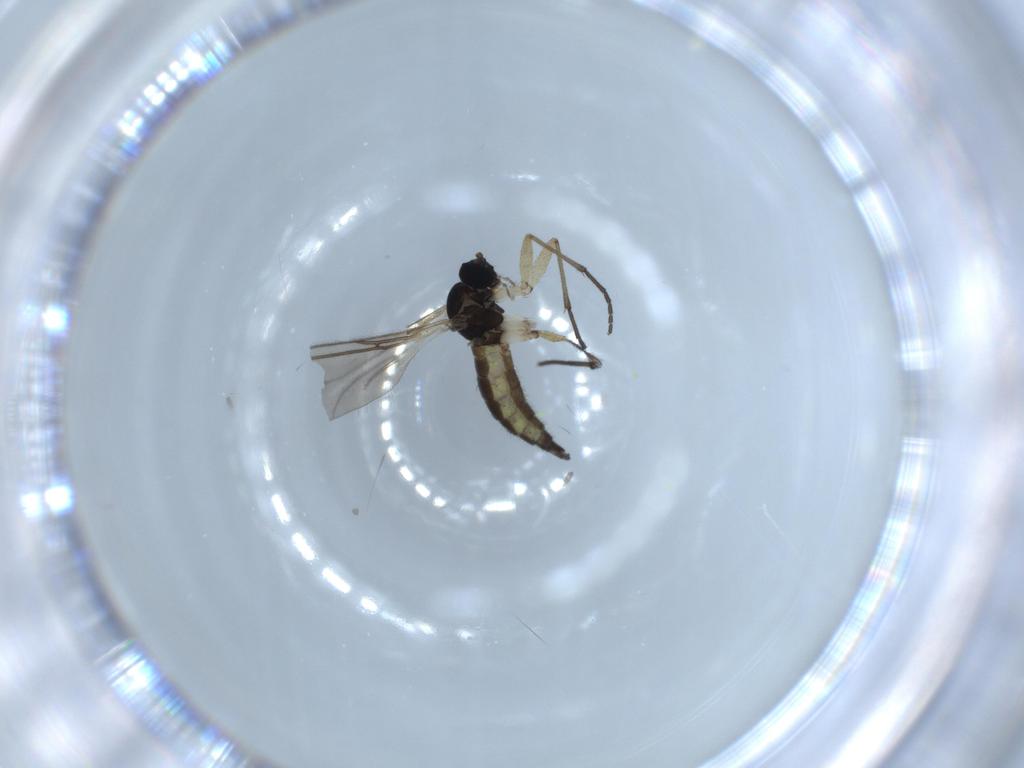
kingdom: Animalia
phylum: Arthropoda
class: Insecta
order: Diptera
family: Sciaridae
